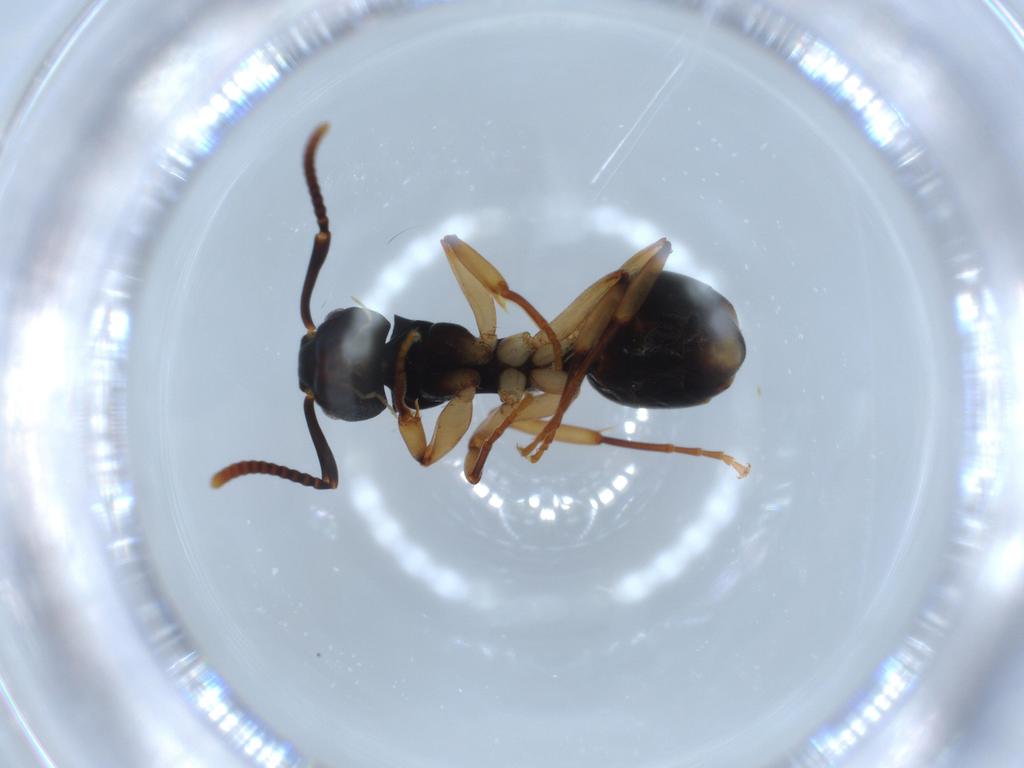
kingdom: Animalia
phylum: Arthropoda
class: Insecta
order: Hymenoptera
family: Formicidae
